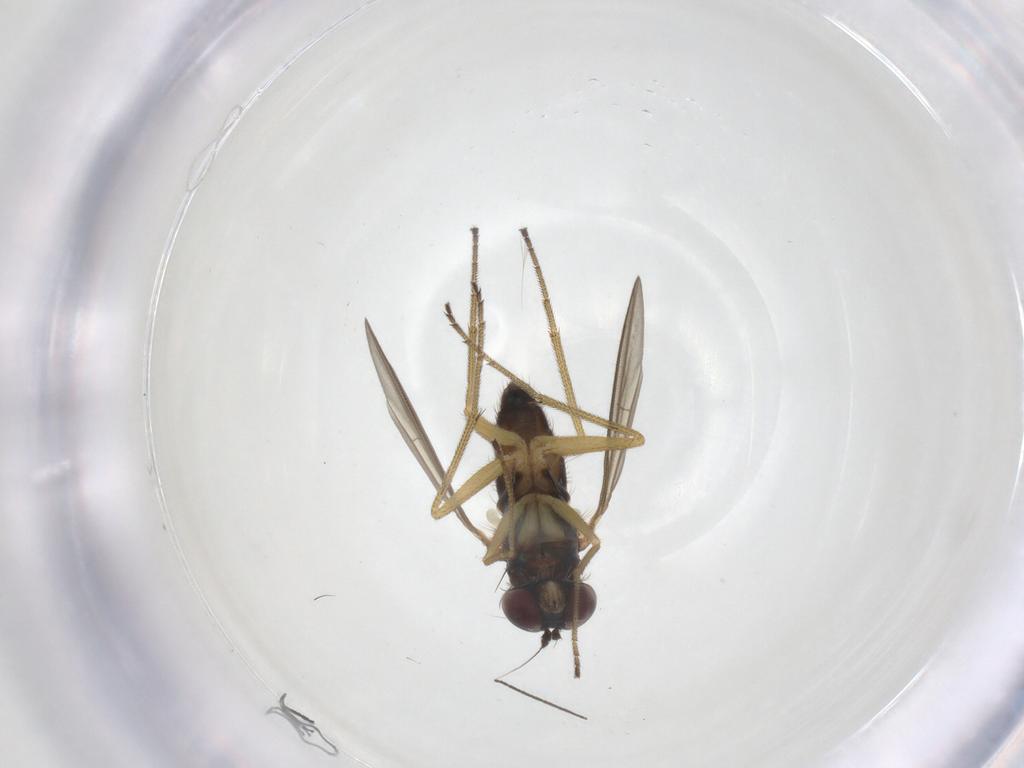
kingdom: Animalia
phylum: Arthropoda
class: Insecta
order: Diptera
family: Dolichopodidae
